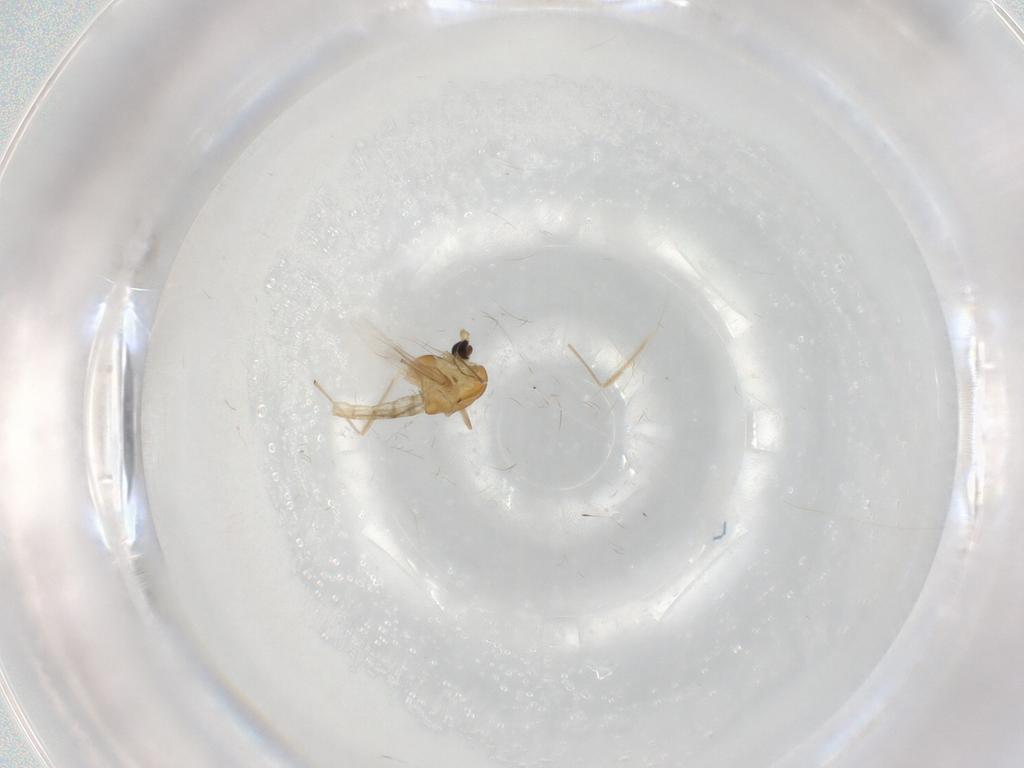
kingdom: Animalia
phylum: Arthropoda
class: Insecta
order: Diptera
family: Chironomidae
